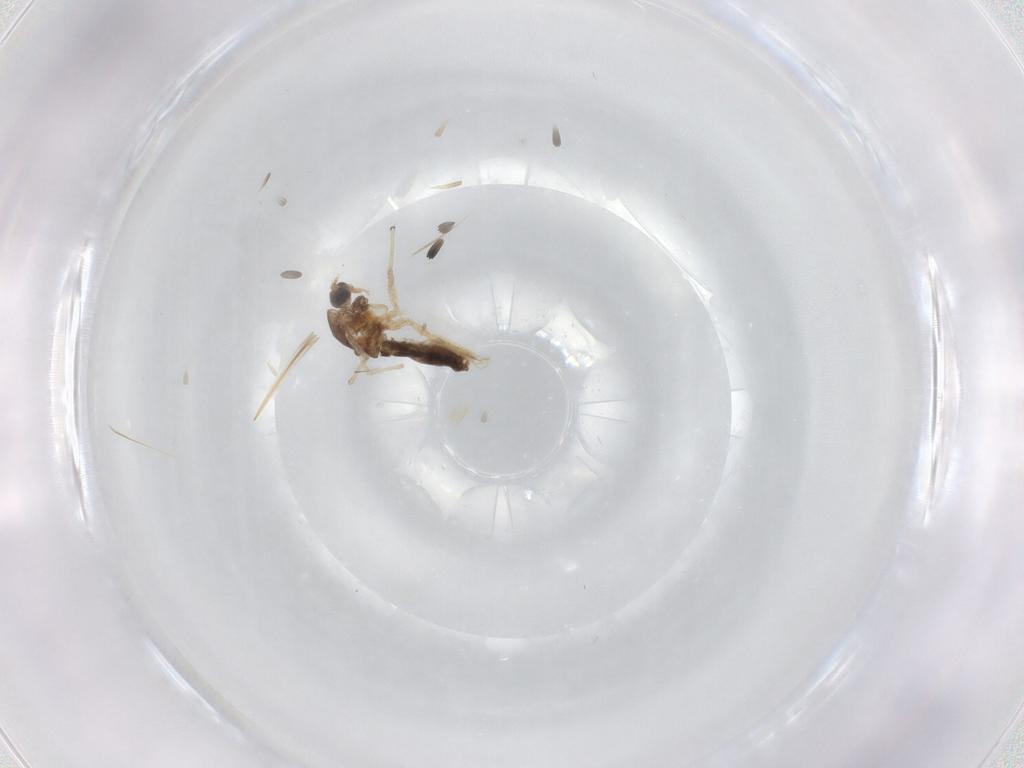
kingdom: Animalia
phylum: Arthropoda
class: Insecta
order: Diptera
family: Chironomidae
